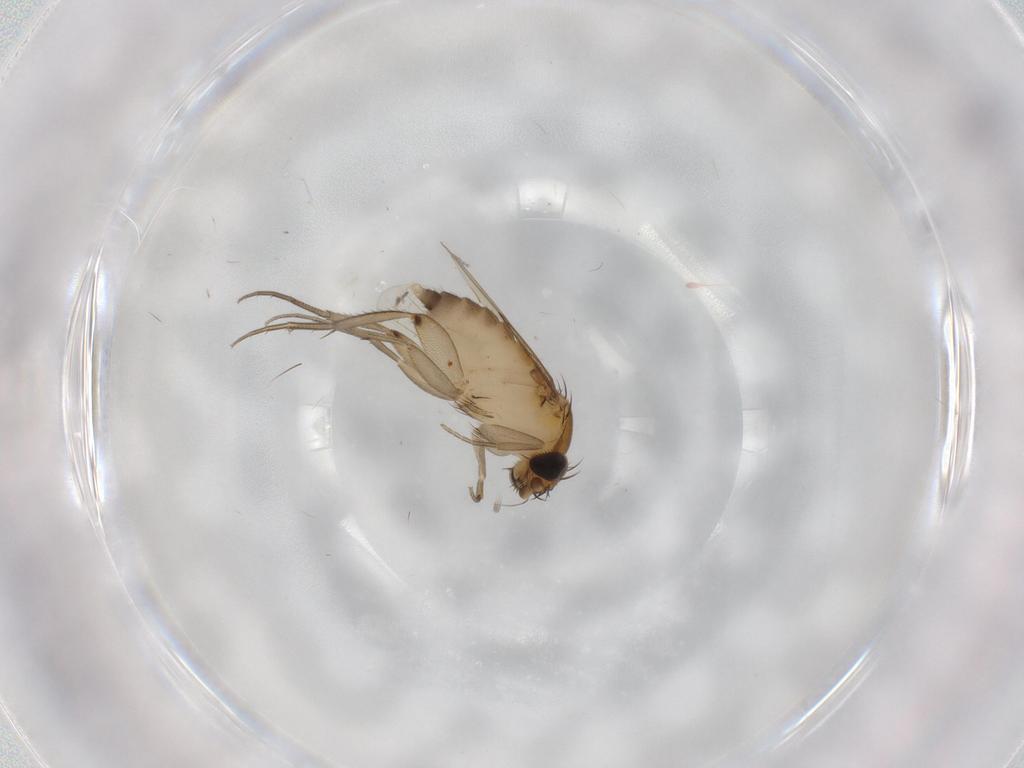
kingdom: Animalia
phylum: Arthropoda
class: Insecta
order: Diptera
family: Phoridae
